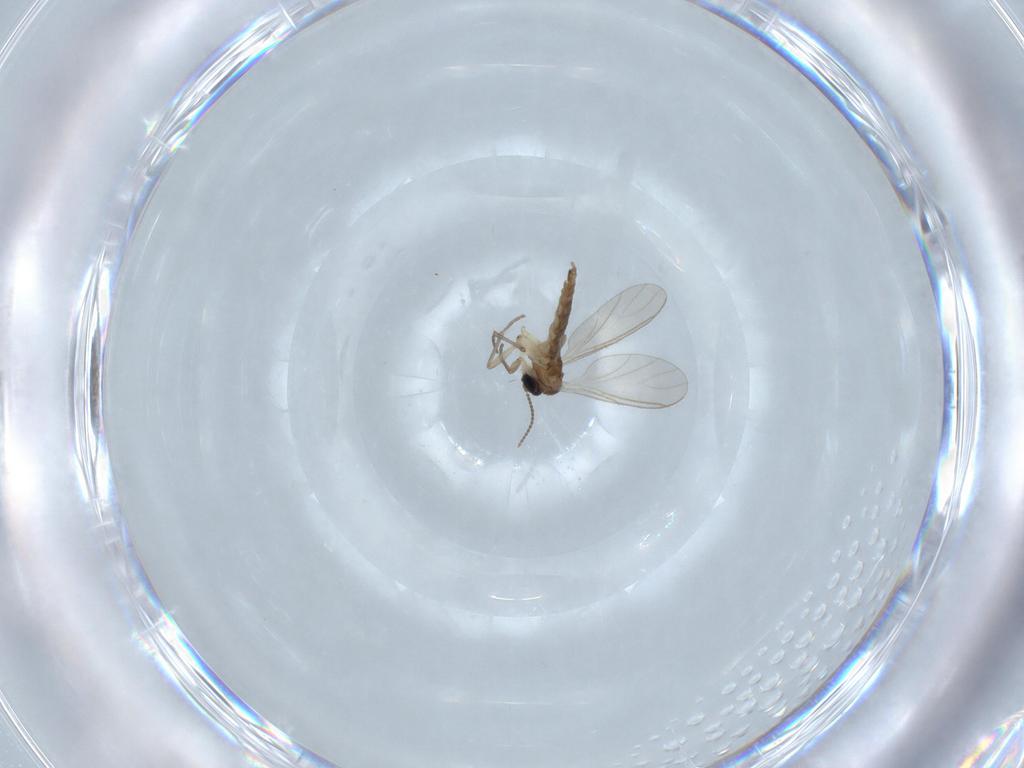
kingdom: Animalia
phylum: Arthropoda
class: Insecta
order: Diptera
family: Sciaridae
